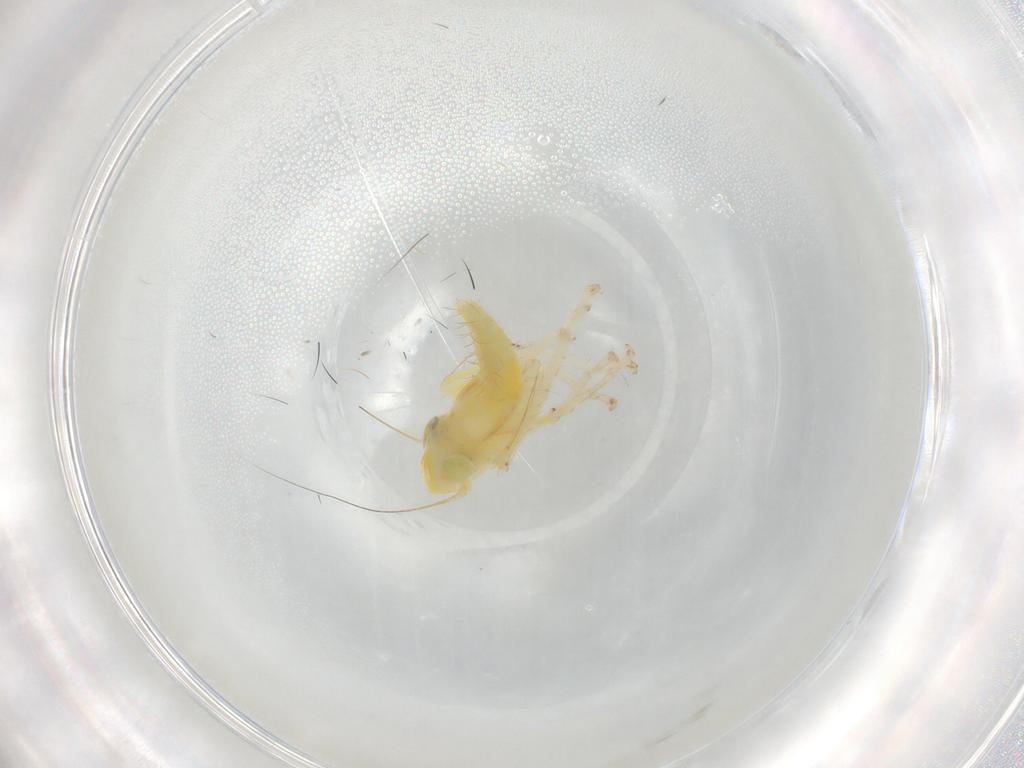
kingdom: Animalia
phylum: Arthropoda
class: Insecta
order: Hemiptera
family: Cicadellidae
